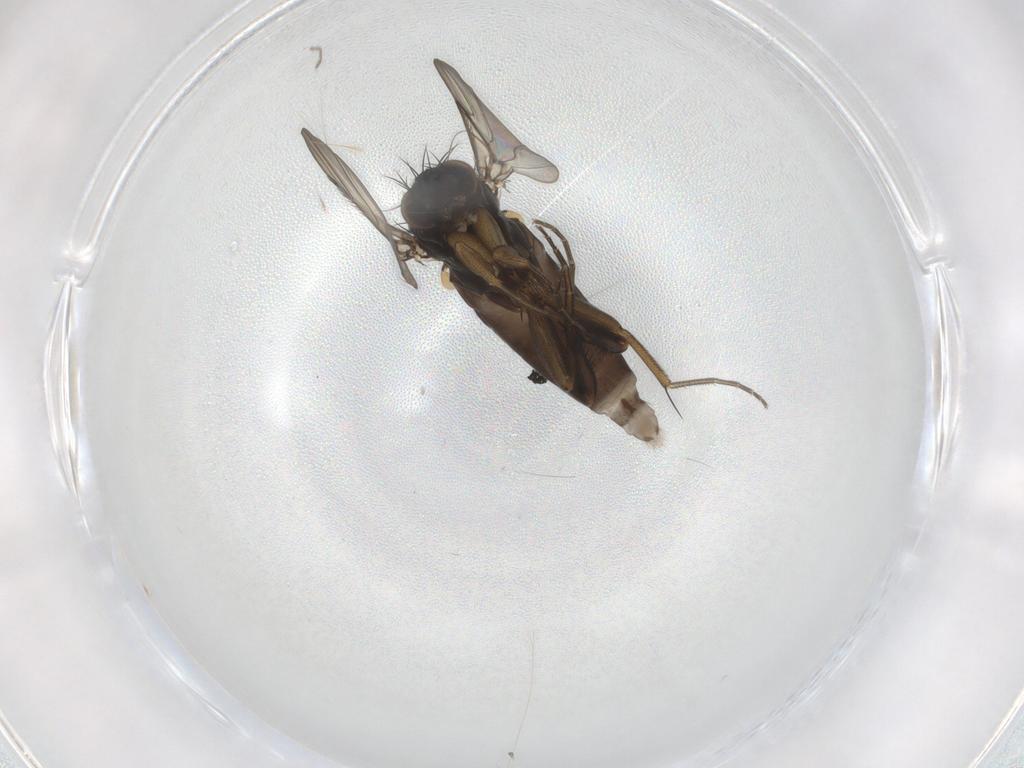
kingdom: Animalia
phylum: Arthropoda
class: Insecta
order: Diptera
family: Phoridae
